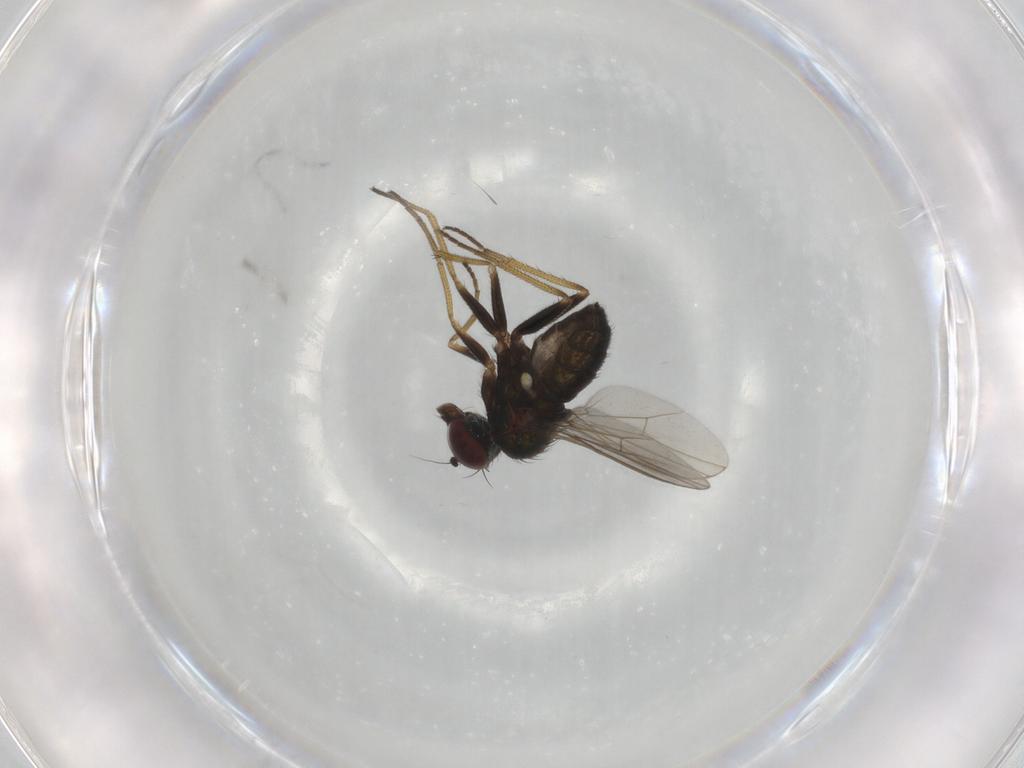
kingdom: Animalia
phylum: Arthropoda
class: Insecta
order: Diptera
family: Dolichopodidae
